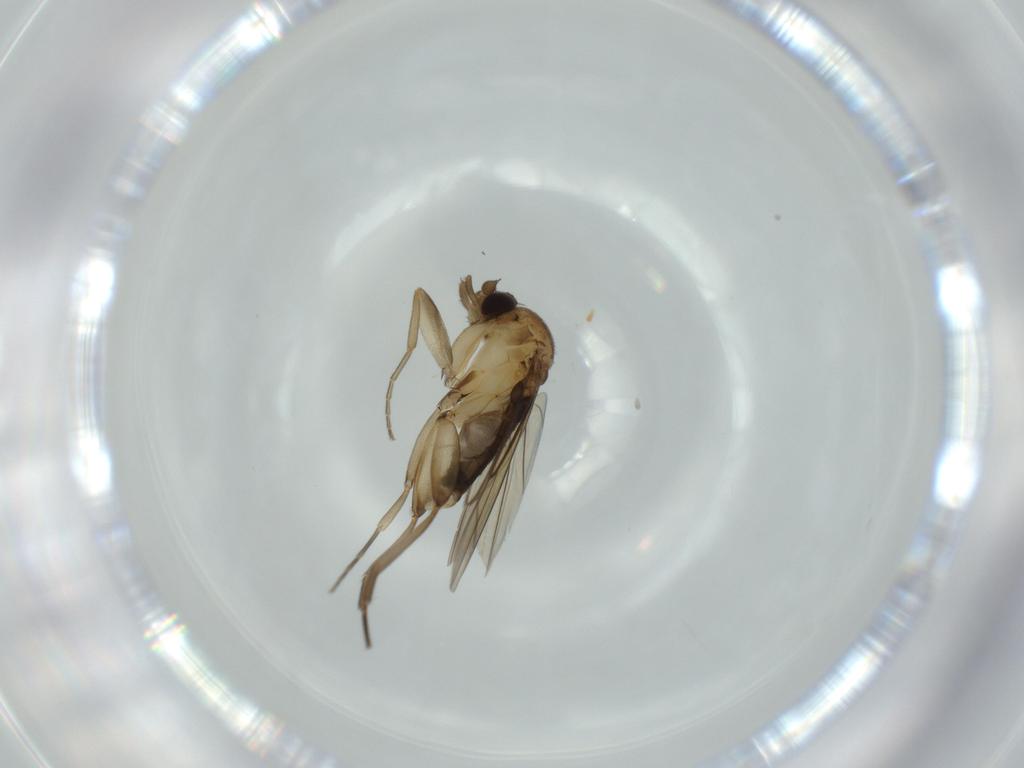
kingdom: Animalia
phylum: Arthropoda
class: Insecta
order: Diptera
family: Phoridae
